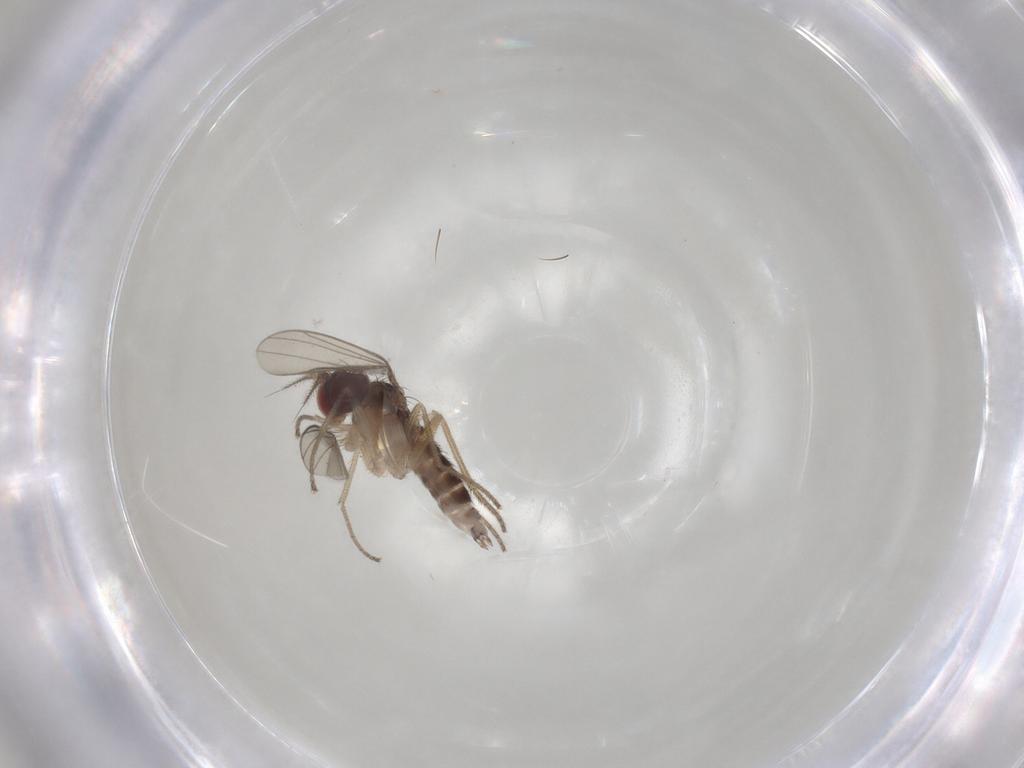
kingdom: Animalia
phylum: Arthropoda
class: Insecta
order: Diptera
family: Dolichopodidae
